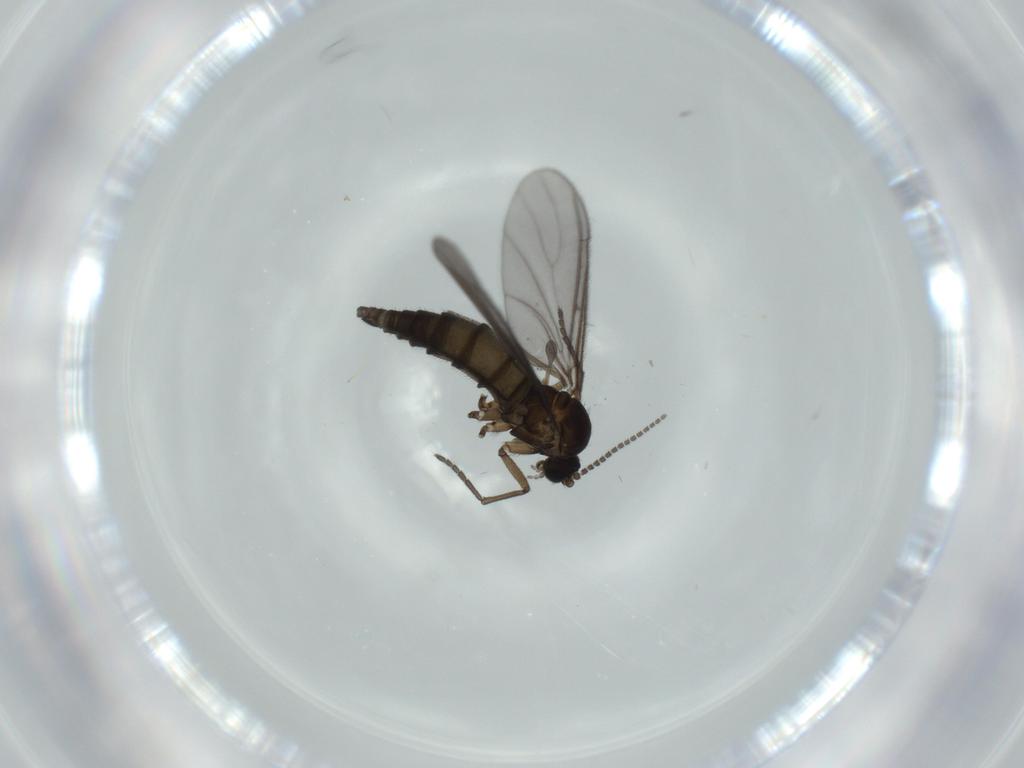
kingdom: Animalia
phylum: Arthropoda
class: Insecta
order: Diptera
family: Sciaridae
